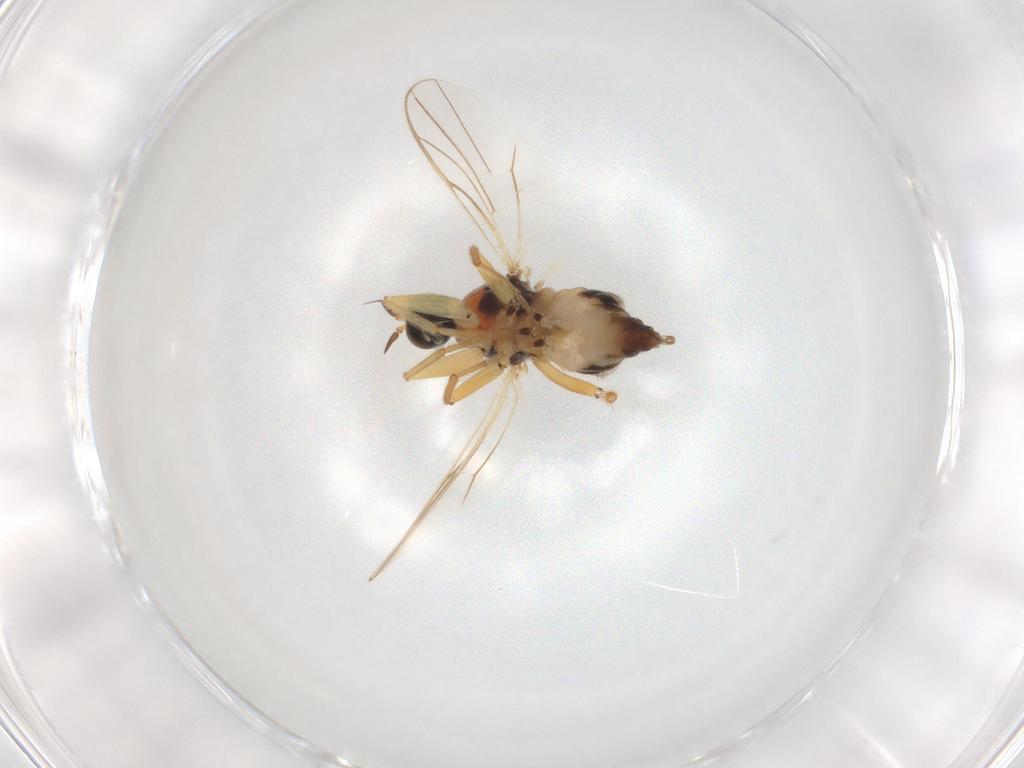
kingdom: Animalia
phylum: Arthropoda
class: Insecta
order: Diptera
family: Hybotidae
